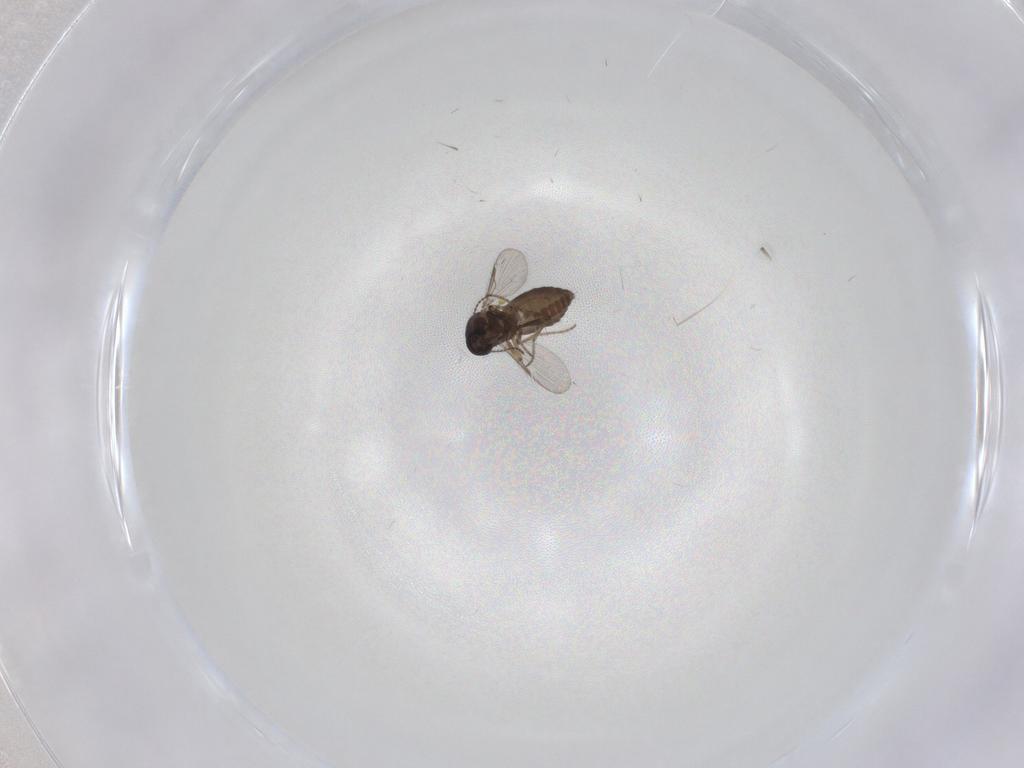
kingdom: Animalia
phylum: Arthropoda
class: Insecta
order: Diptera
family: Ceratopogonidae
